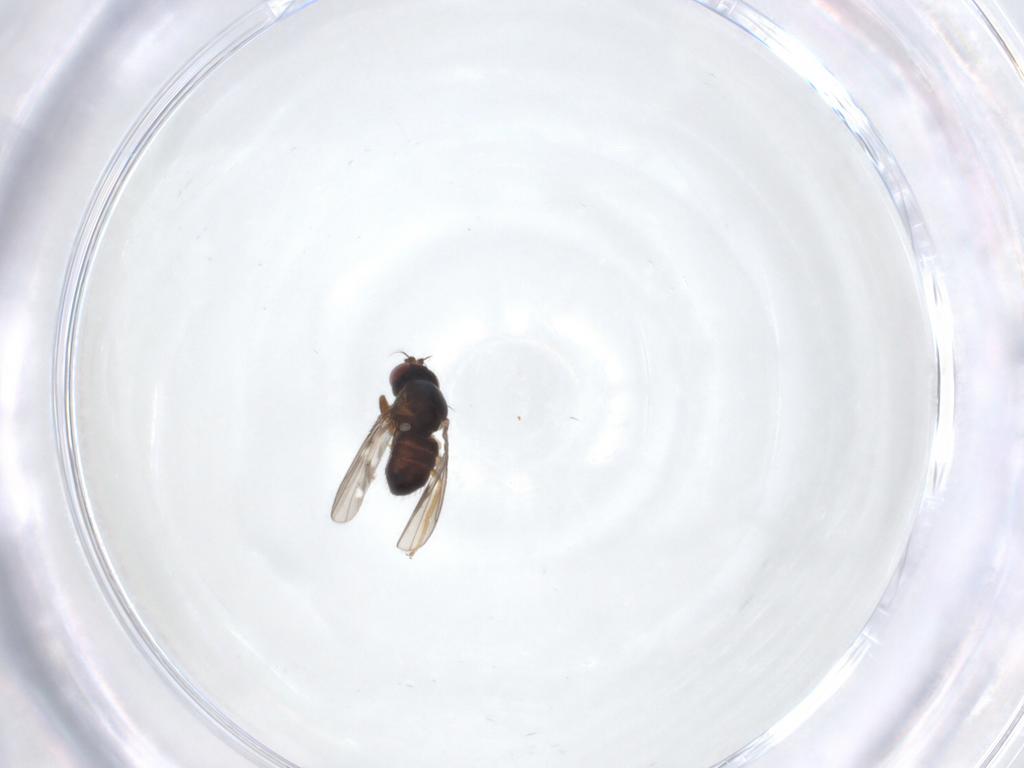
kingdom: Animalia
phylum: Arthropoda
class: Insecta
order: Diptera
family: Ephydridae
